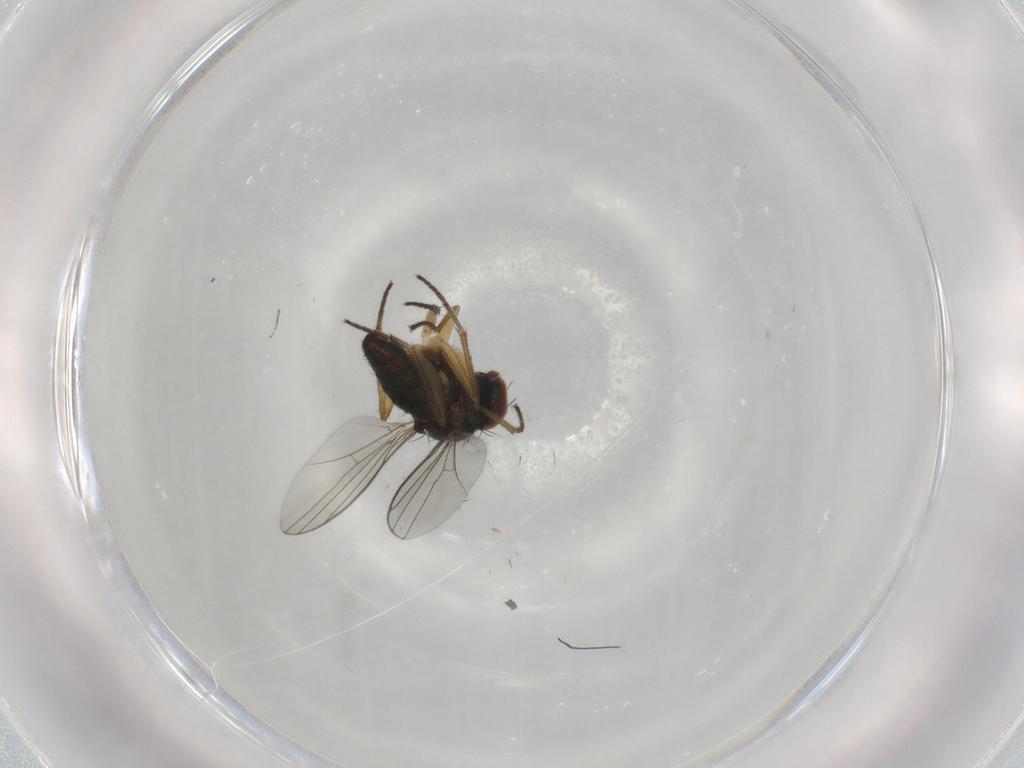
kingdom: Animalia
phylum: Arthropoda
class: Insecta
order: Diptera
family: Dolichopodidae
